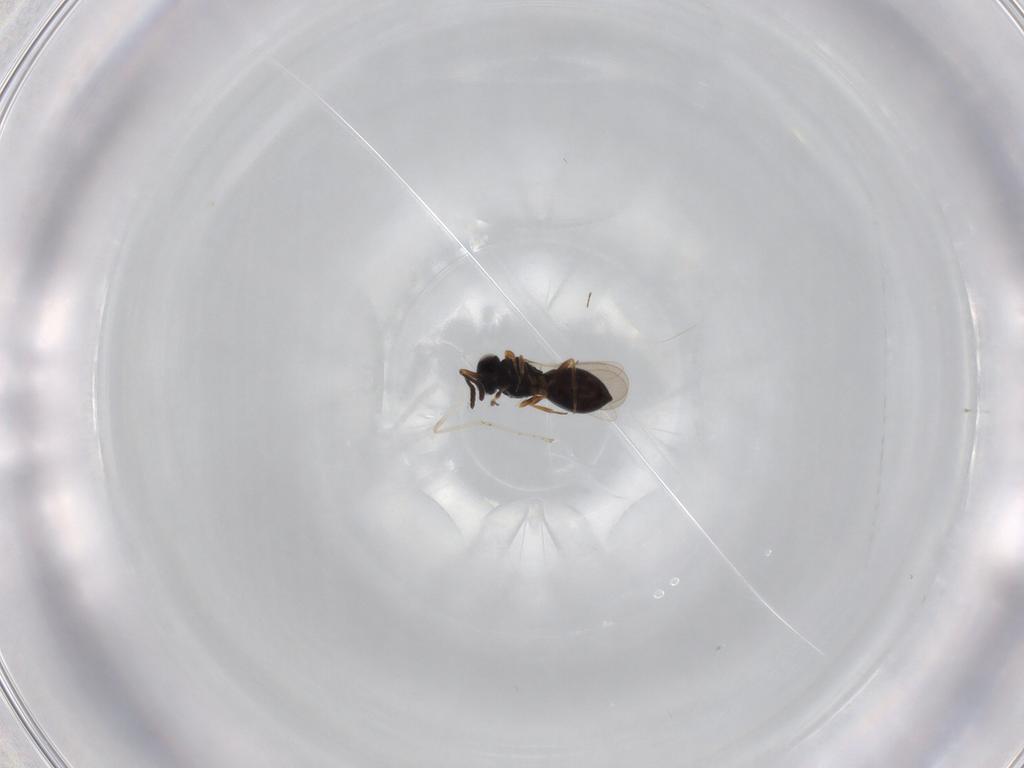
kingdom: Animalia
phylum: Arthropoda
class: Insecta
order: Hymenoptera
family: Scelionidae
